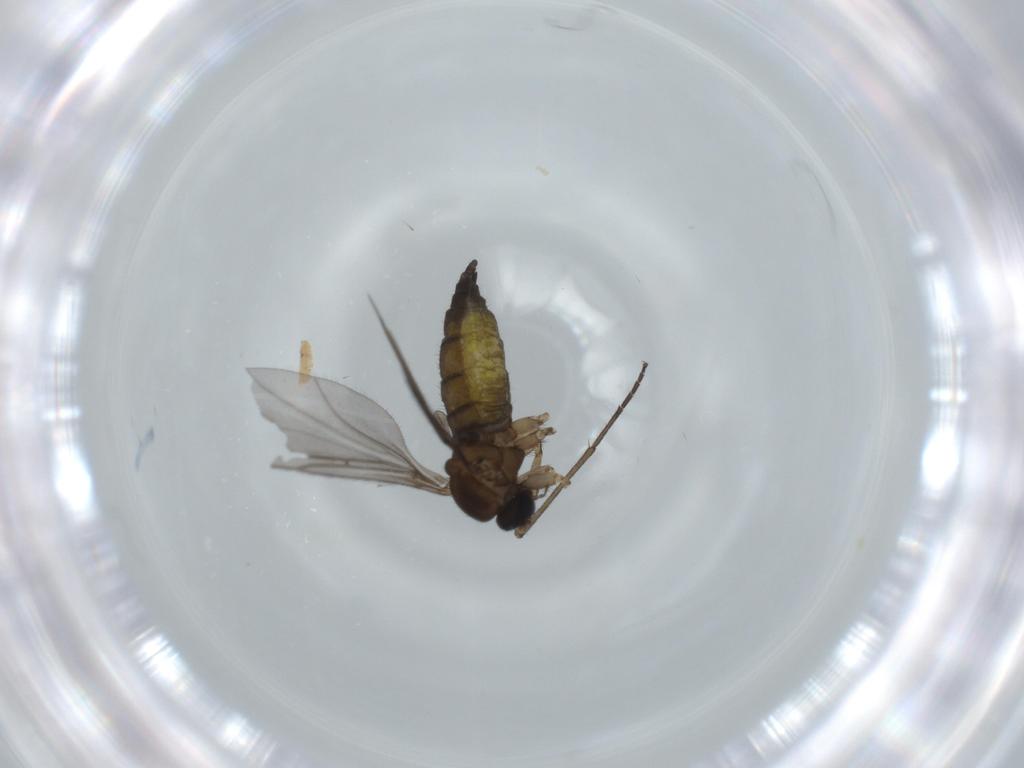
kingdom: Animalia
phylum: Arthropoda
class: Insecta
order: Diptera
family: Sciaridae
